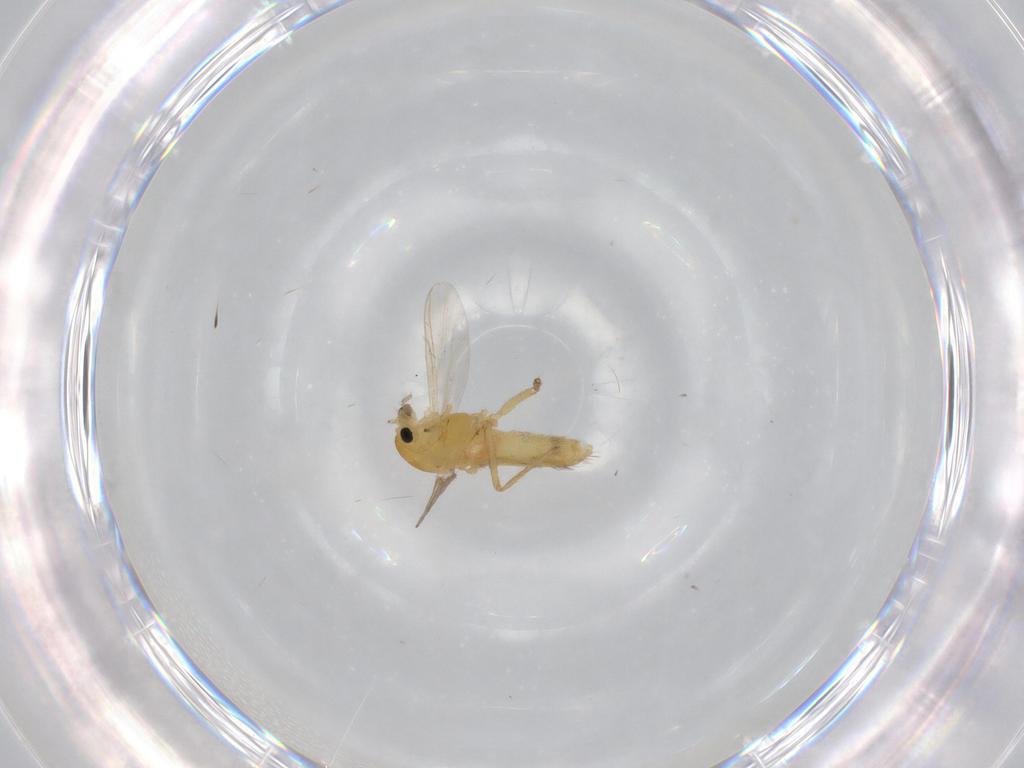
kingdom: Animalia
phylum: Arthropoda
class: Insecta
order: Diptera
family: Chironomidae
